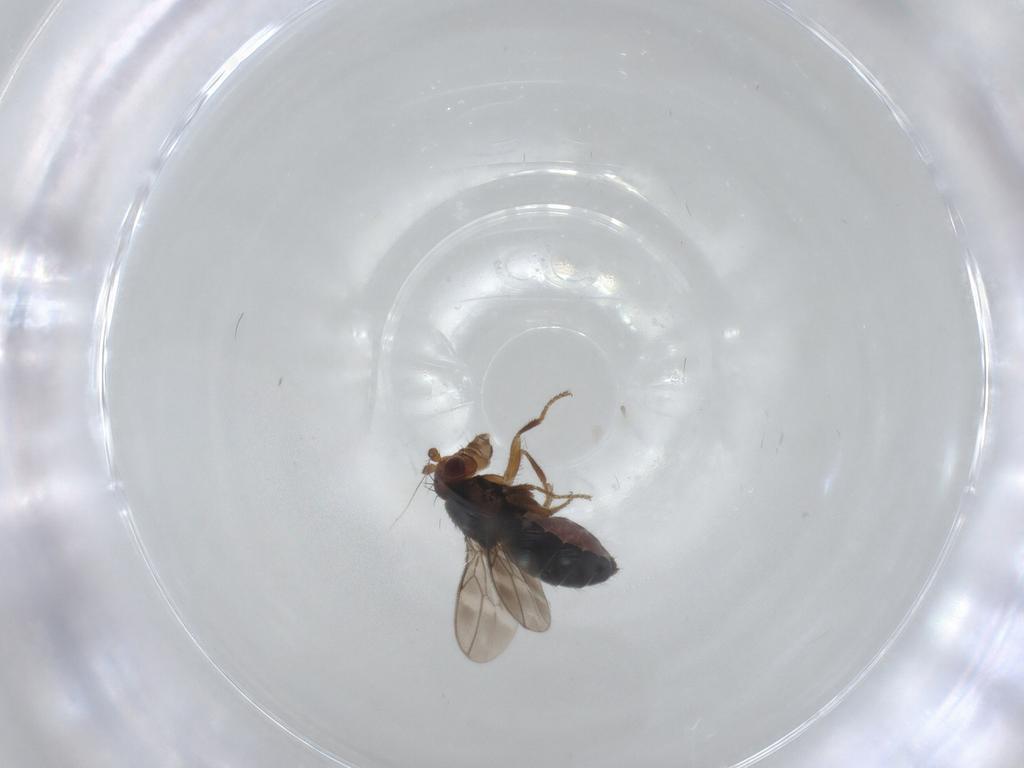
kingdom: Animalia
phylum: Arthropoda
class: Insecta
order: Diptera
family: Sphaeroceridae
